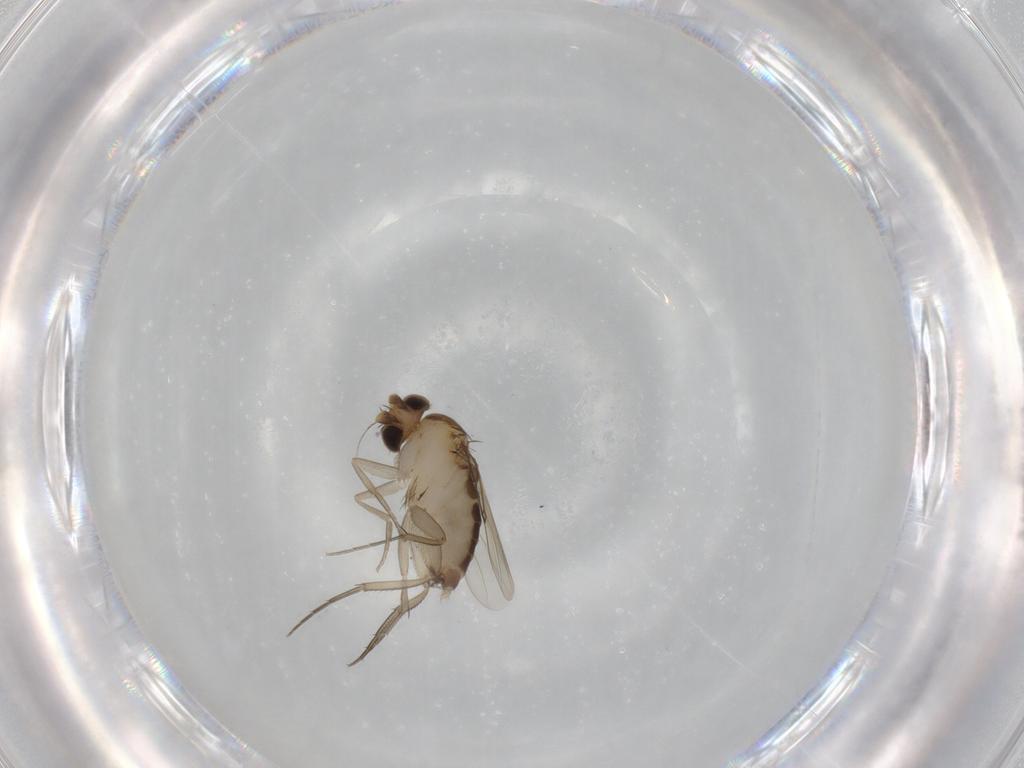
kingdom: Animalia
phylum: Arthropoda
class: Insecta
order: Diptera
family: Phoridae
